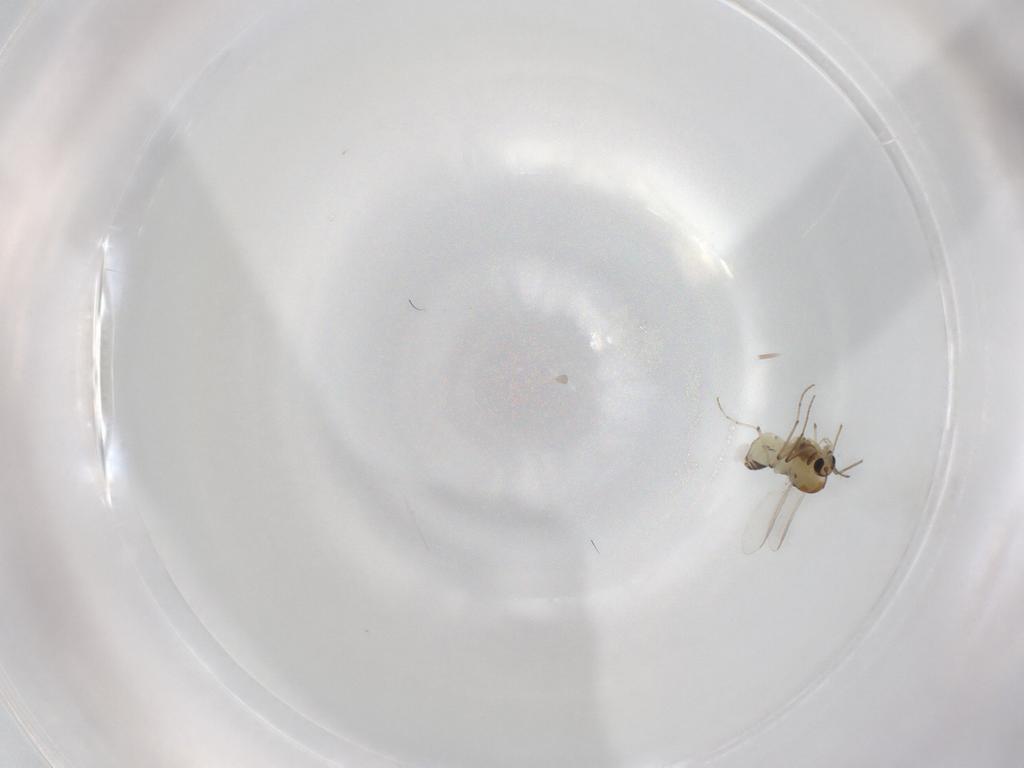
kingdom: Animalia
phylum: Arthropoda
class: Insecta
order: Diptera
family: Chironomidae
